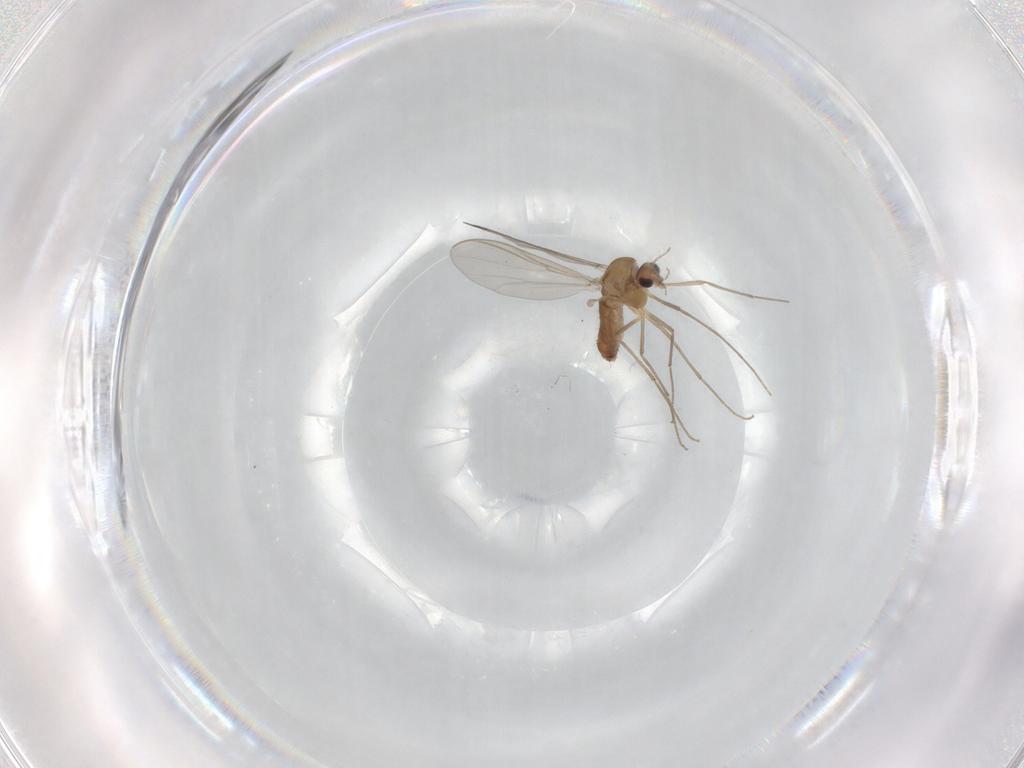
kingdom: Animalia
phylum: Arthropoda
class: Insecta
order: Diptera
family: Chironomidae
